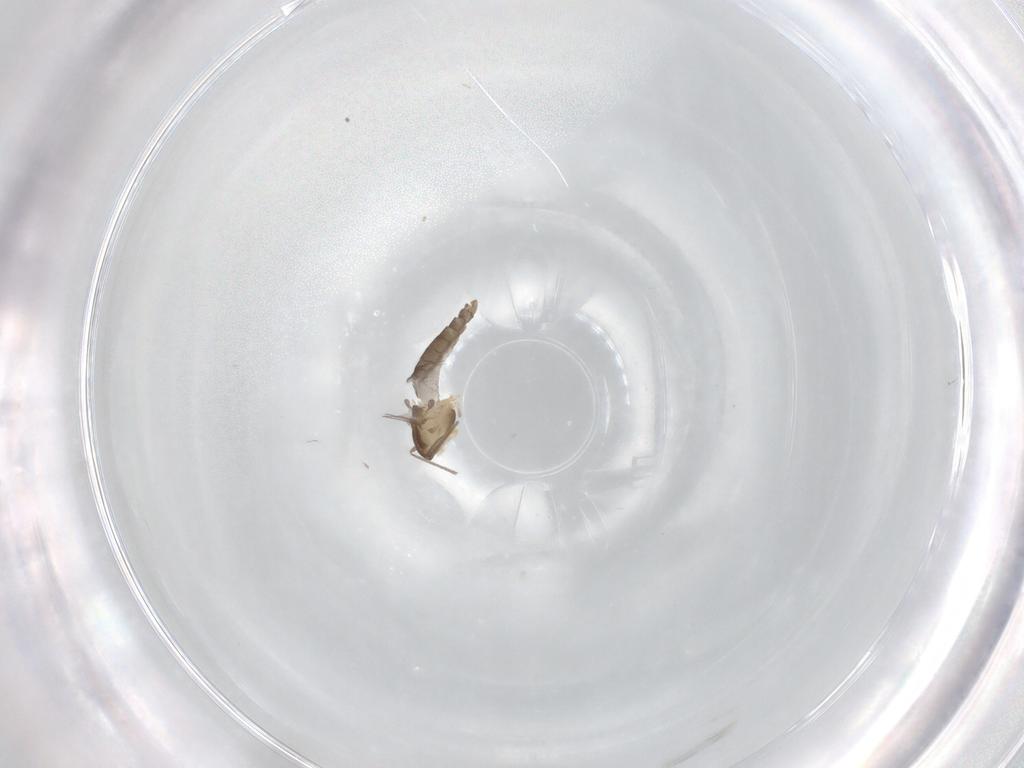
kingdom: Animalia
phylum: Arthropoda
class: Insecta
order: Diptera
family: Chironomidae
